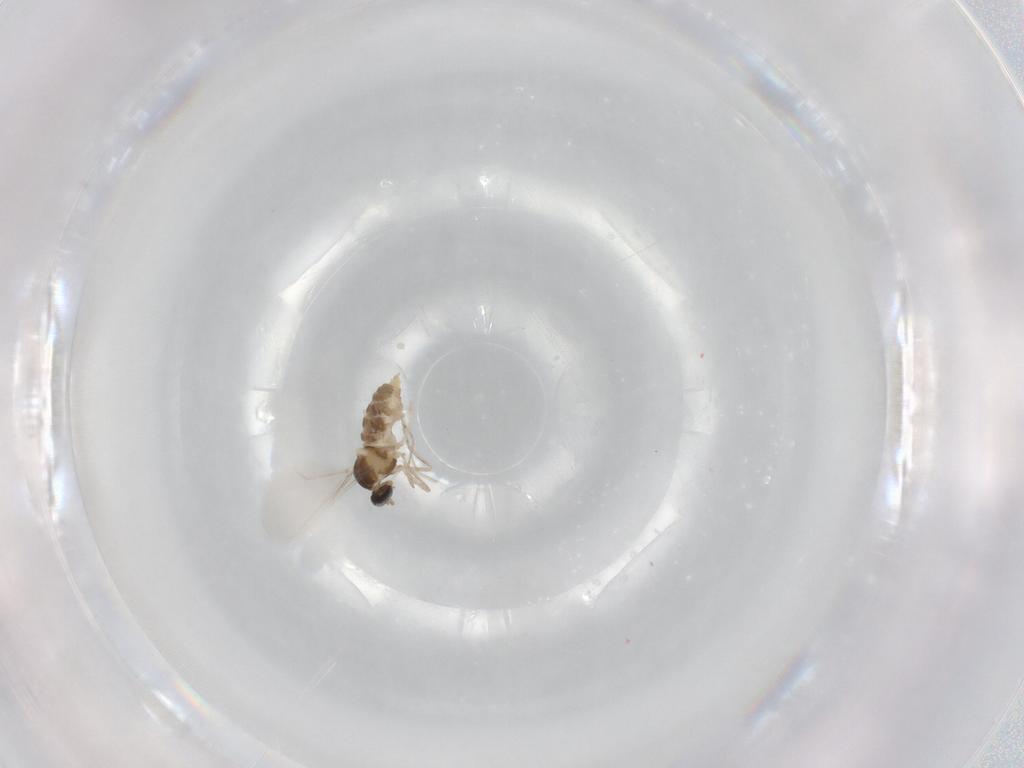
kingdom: Animalia
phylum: Arthropoda
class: Insecta
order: Diptera
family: Cecidomyiidae
